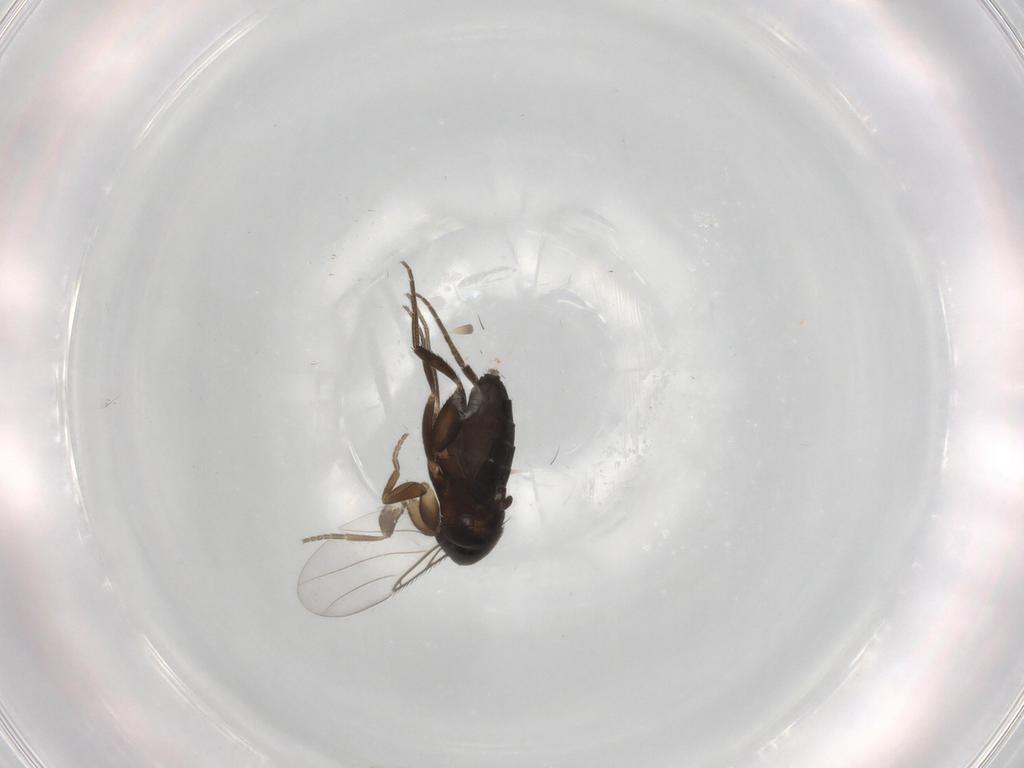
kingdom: Animalia
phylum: Arthropoda
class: Insecta
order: Diptera
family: Phoridae
